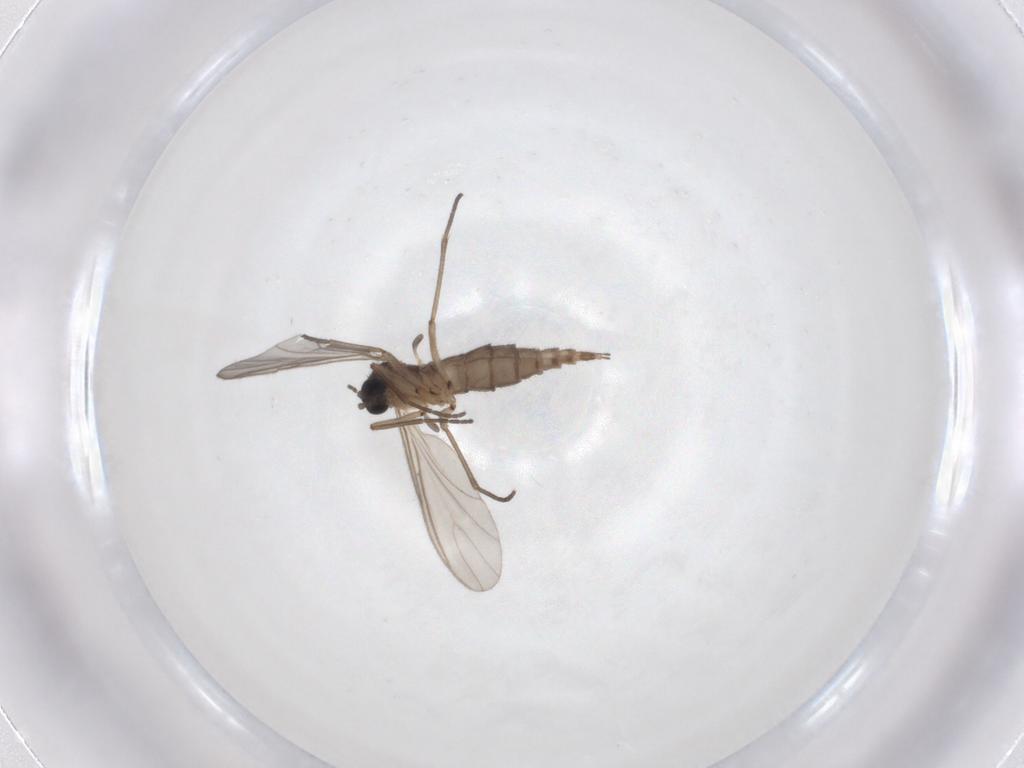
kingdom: Animalia
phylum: Arthropoda
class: Insecta
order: Diptera
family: Sciaridae
